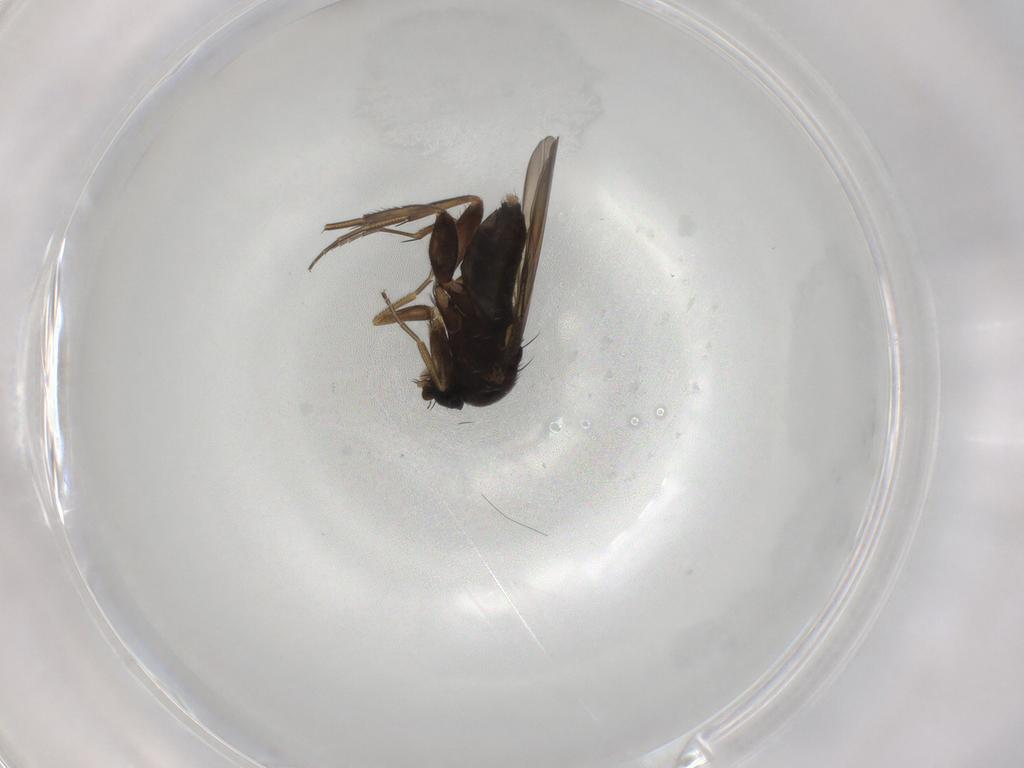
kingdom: Animalia
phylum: Arthropoda
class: Insecta
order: Diptera
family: Phoridae
